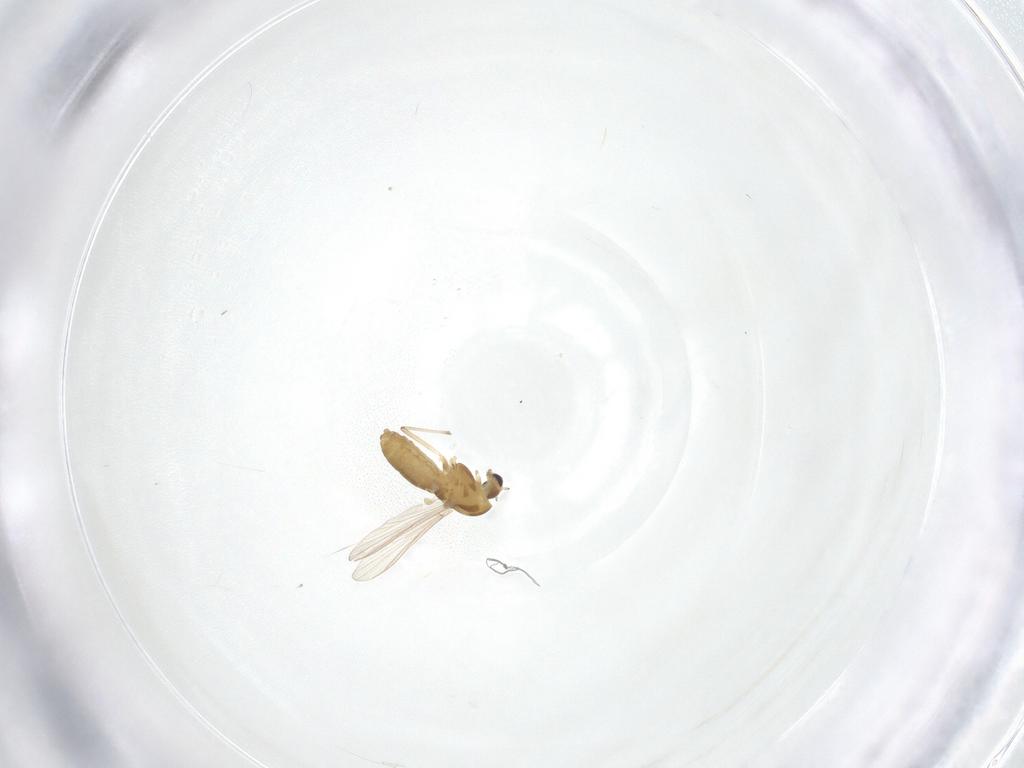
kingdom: Animalia
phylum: Arthropoda
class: Insecta
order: Diptera
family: Chironomidae
